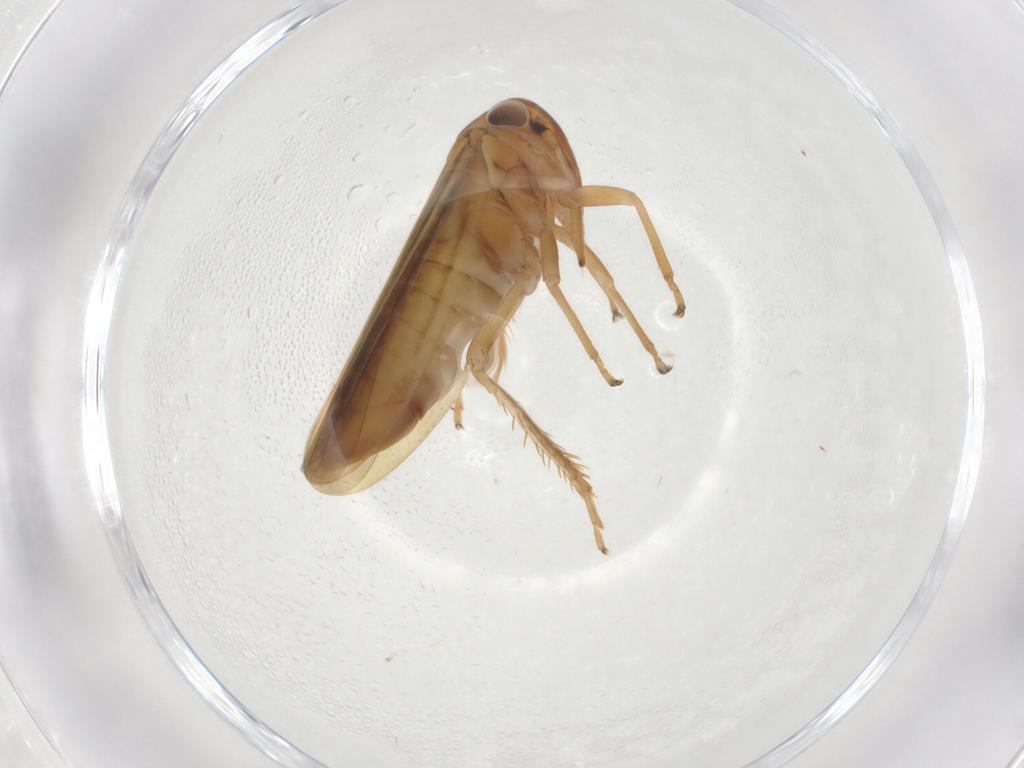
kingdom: Animalia
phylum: Arthropoda
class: Insecta
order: Hemiptera
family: Cicadellidae
